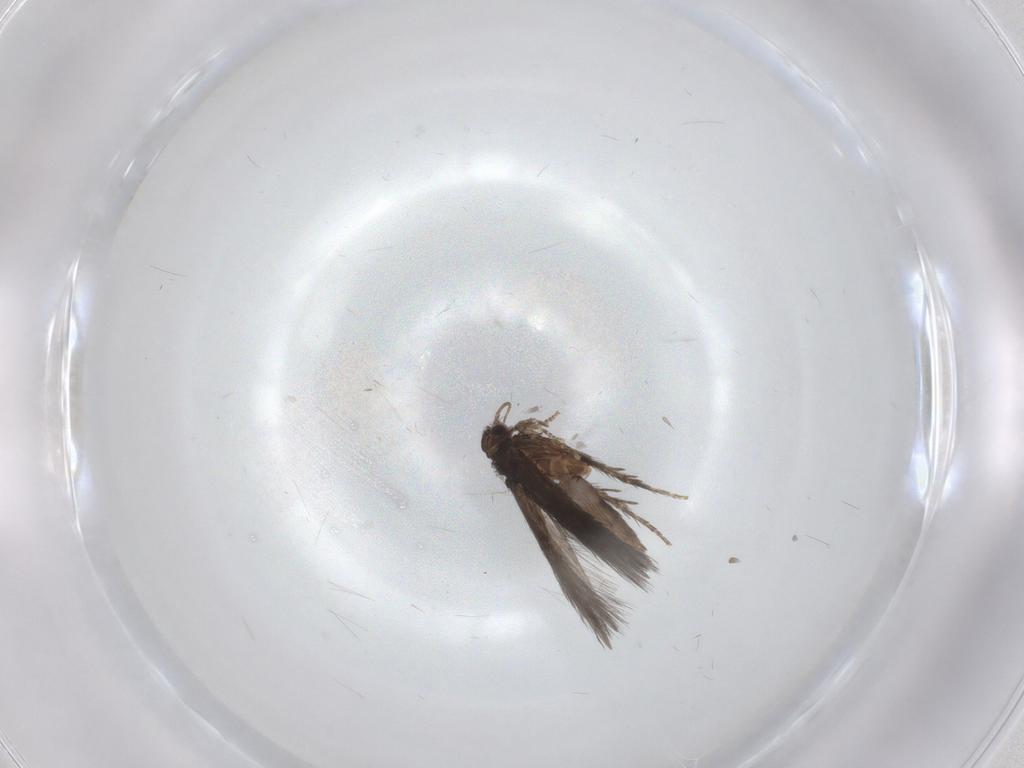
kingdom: Animalia
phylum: Arthropoda
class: Insecta
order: Trichoptera
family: Hydroptilidae
